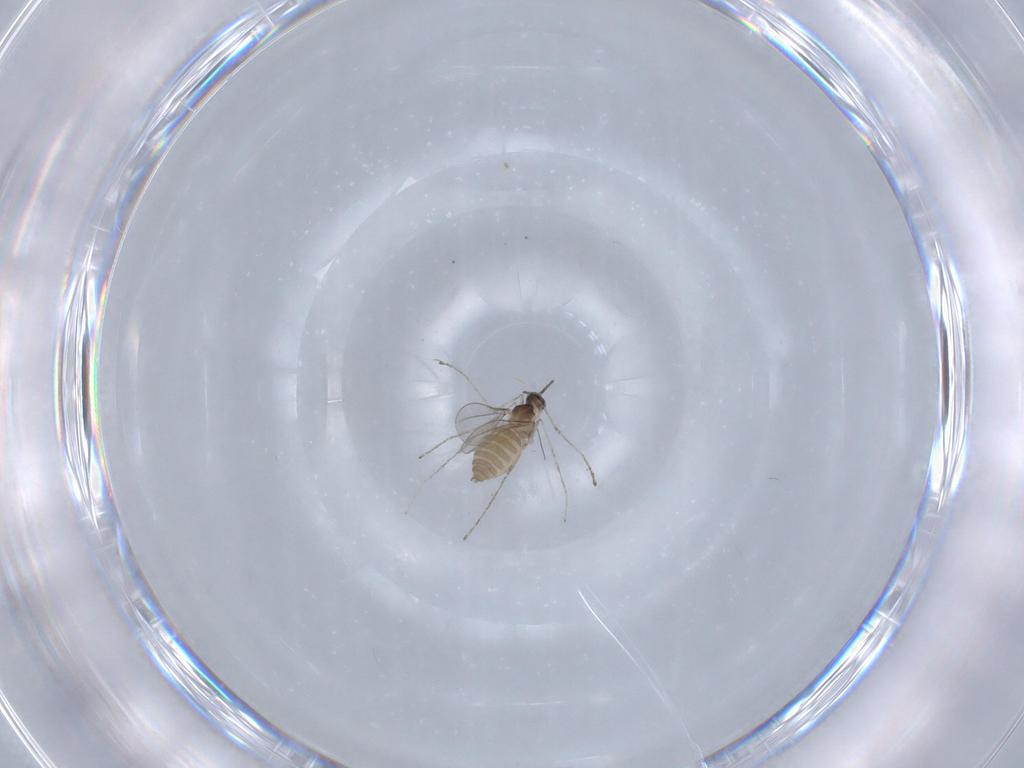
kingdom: Animalia
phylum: Arthropoda
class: Insecta
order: Diptera
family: Cecidomyiidae
